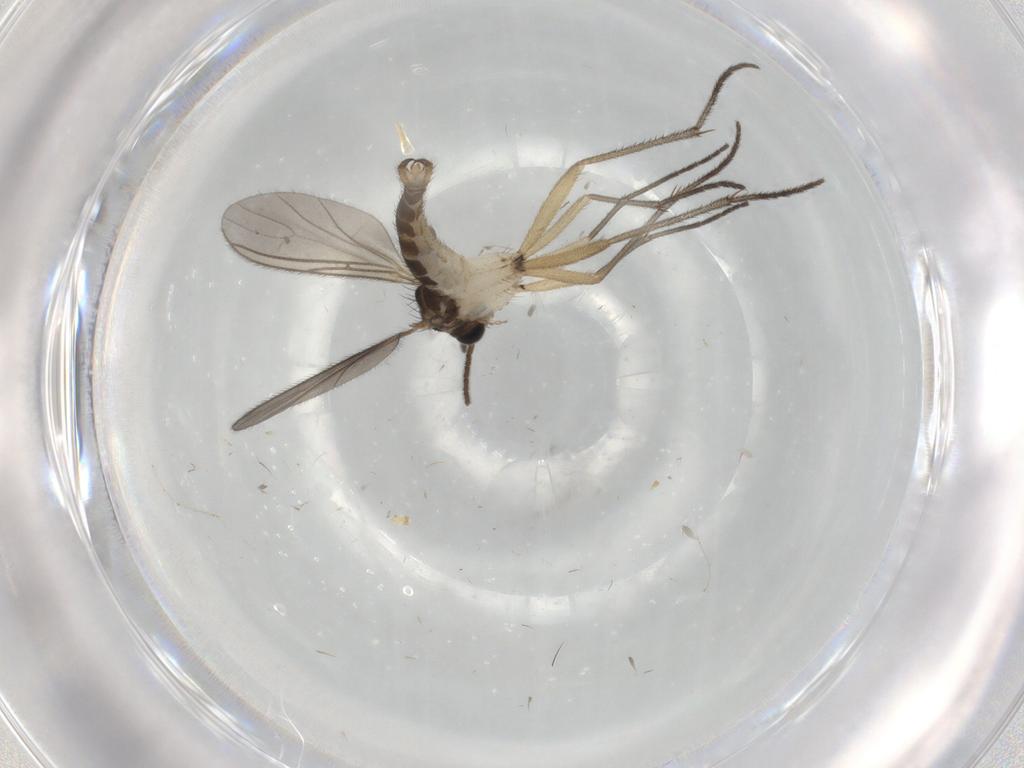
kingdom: Animalia
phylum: Arthropoda
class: Insecta
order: Diptera
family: Sciaridae
